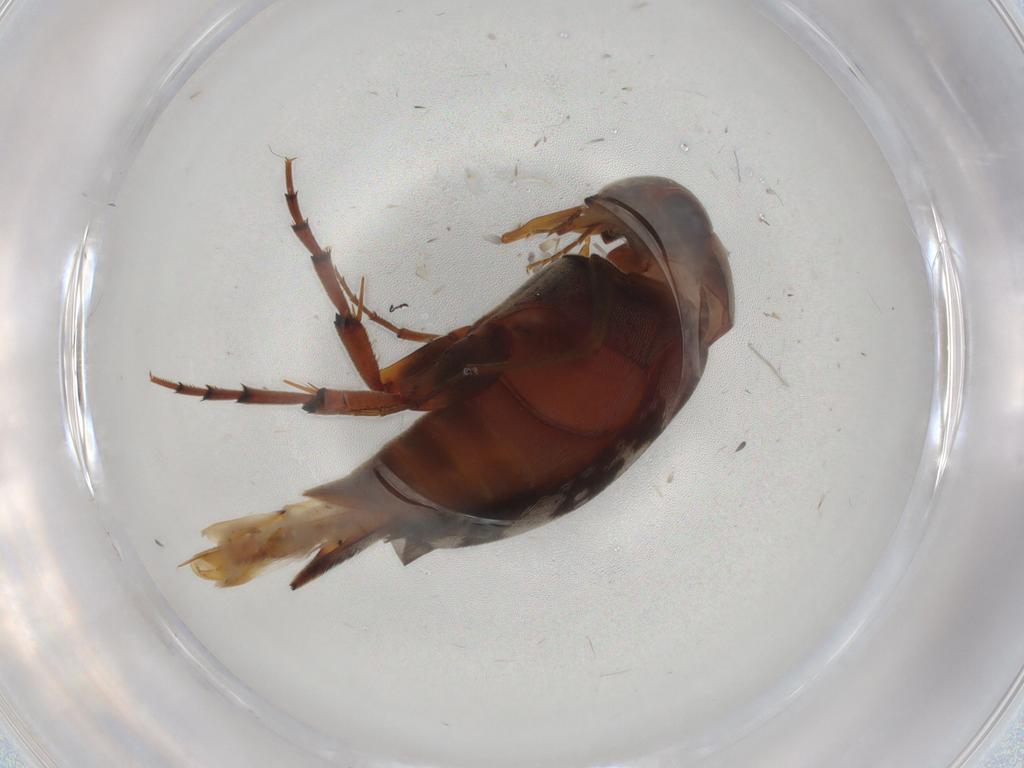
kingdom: Animalia
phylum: Arthropoda
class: Insecta
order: Coleoptera
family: Mordellidae
